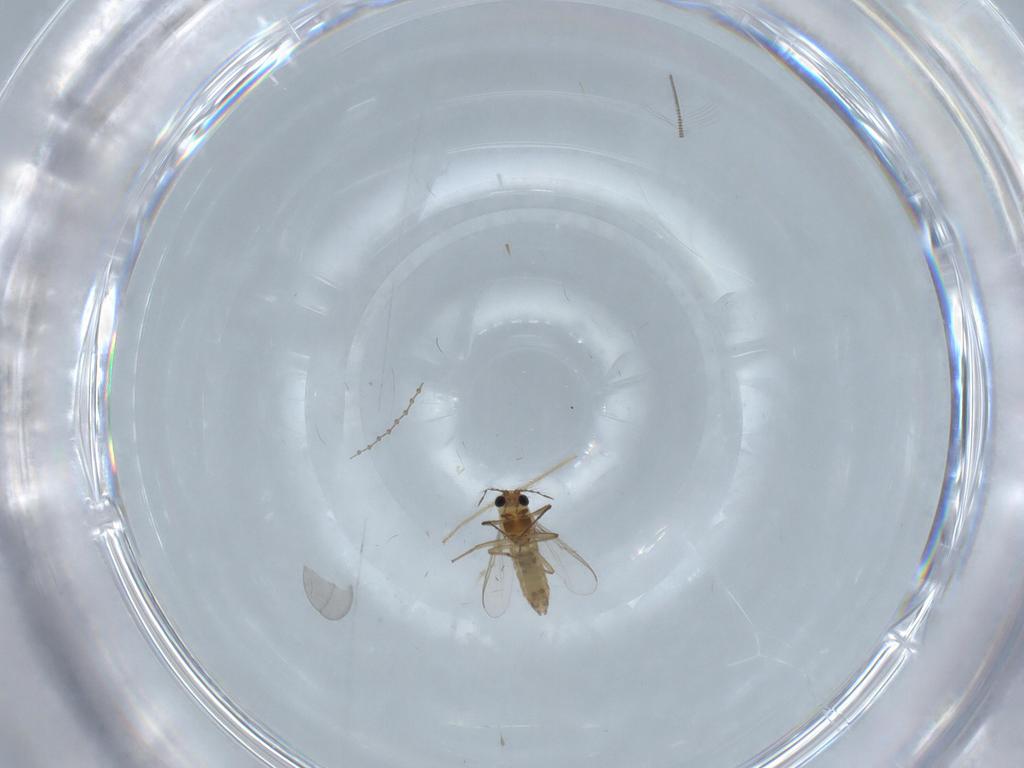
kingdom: Animalia
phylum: Arthropoda
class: Insecta
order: Diptera
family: Chironomidae
